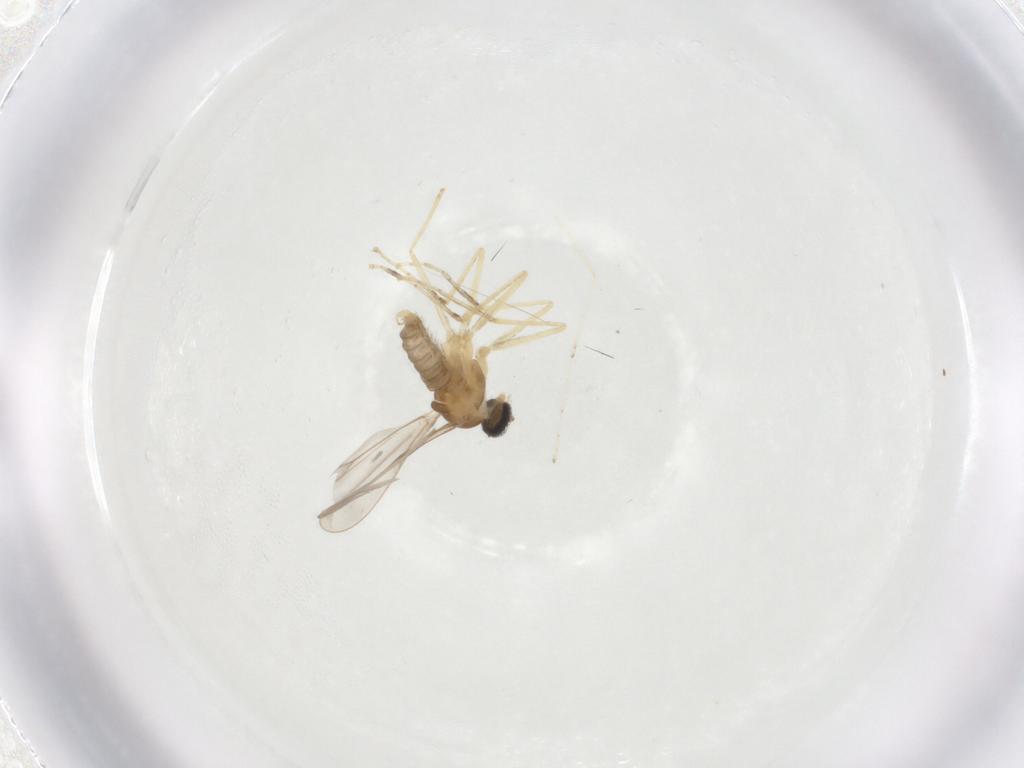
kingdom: Animalia
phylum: Arthropoda
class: Insecta
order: Diptera
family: Cecidomyiidae
